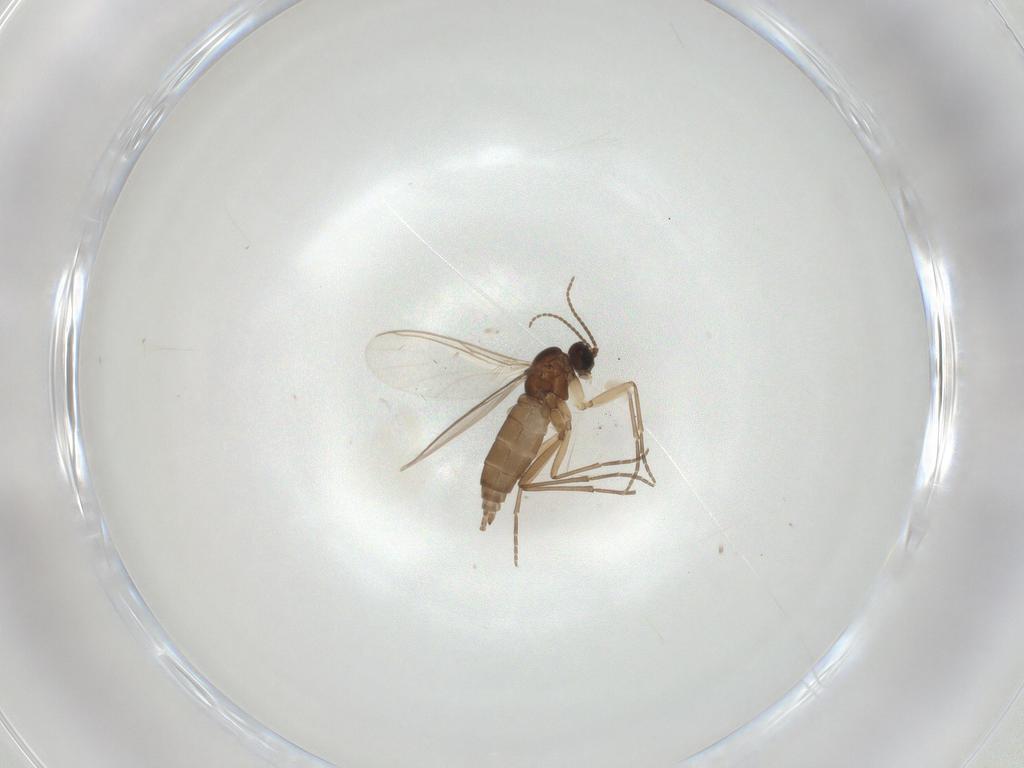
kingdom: Animalia
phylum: Arthropoda
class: Insecta
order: Diptera
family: Sciaridae
